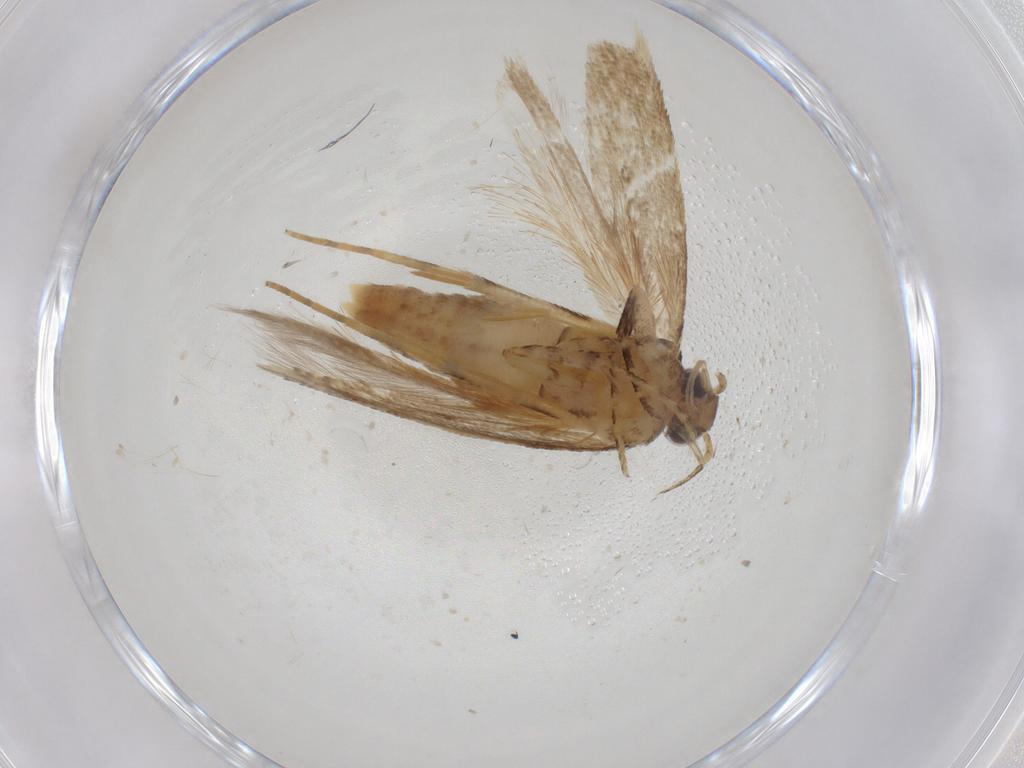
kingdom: Animalia
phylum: Arthropoda
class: Insecta
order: Lepidoptera
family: Gelechiidae
